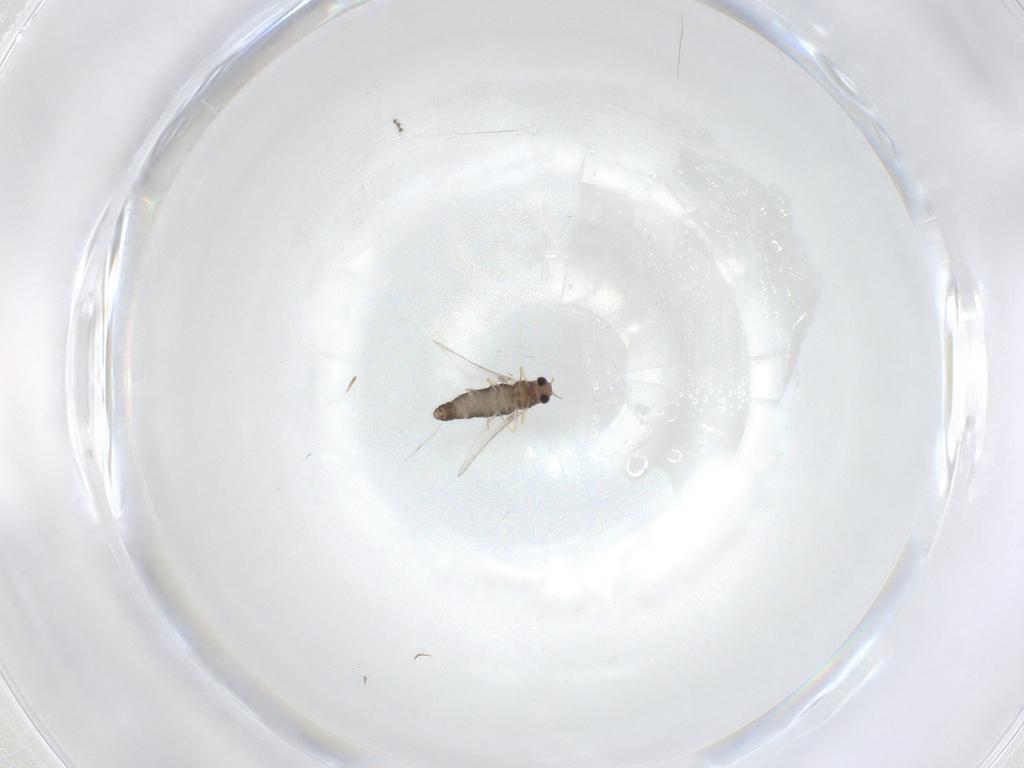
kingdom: Animalia
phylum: Arthropoda
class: Insecta
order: Diptera
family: Chironomidae
